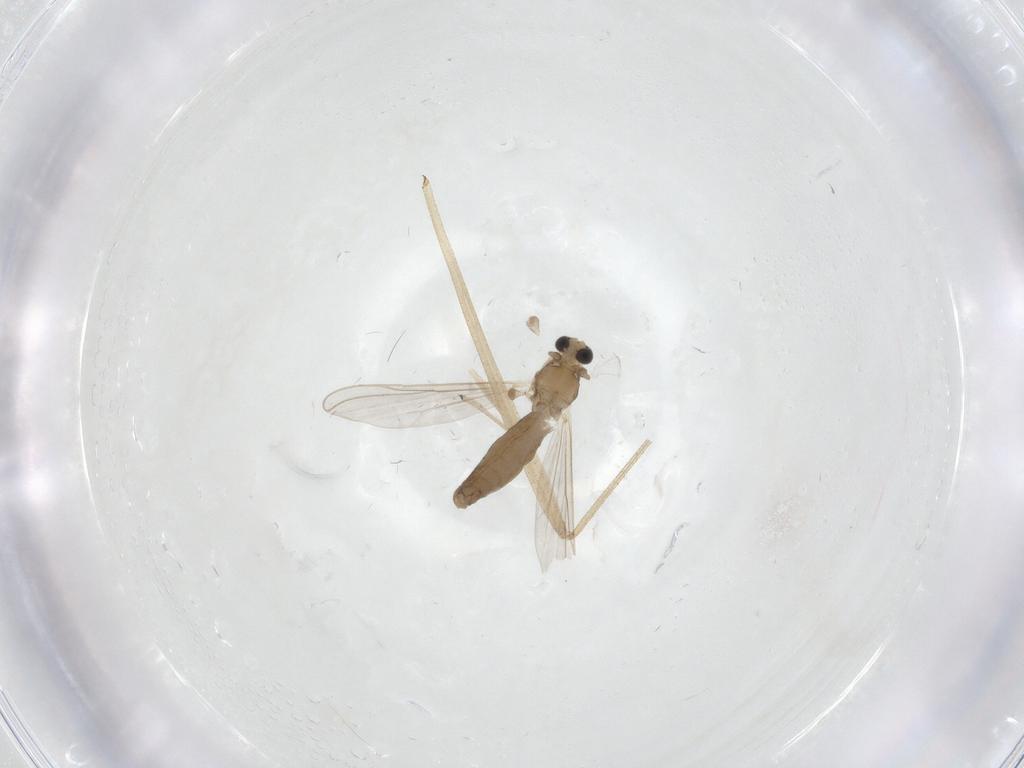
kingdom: Animalia
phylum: Arthropoda
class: Insecta
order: Diptera
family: Chironomidae
